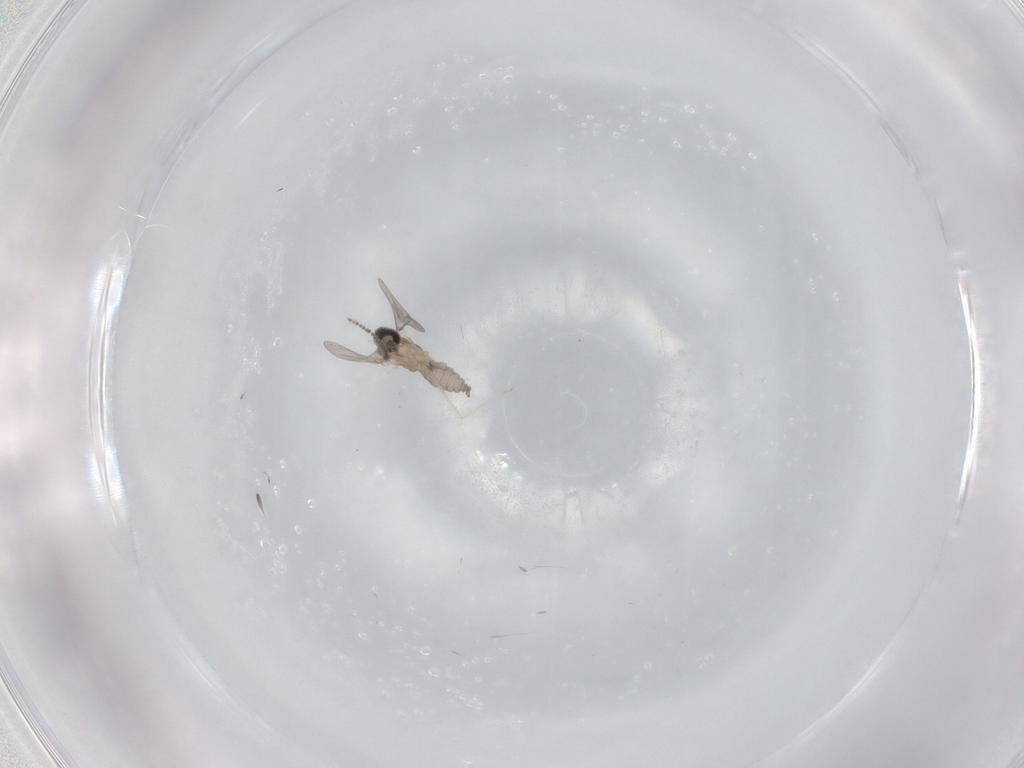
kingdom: Animalia
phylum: Arthropoda
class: Insecta
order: Diptera
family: Cecidomyiidae
